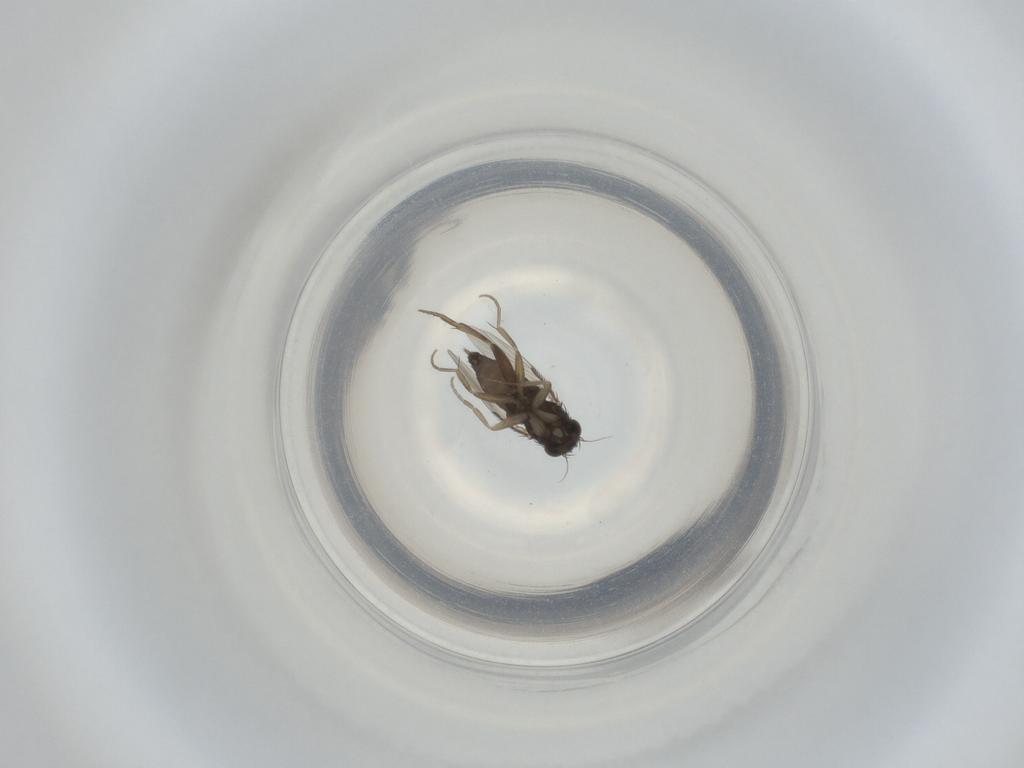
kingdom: Animalia
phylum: Arthropoda
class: Insecta
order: Diptera
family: Phoridae
